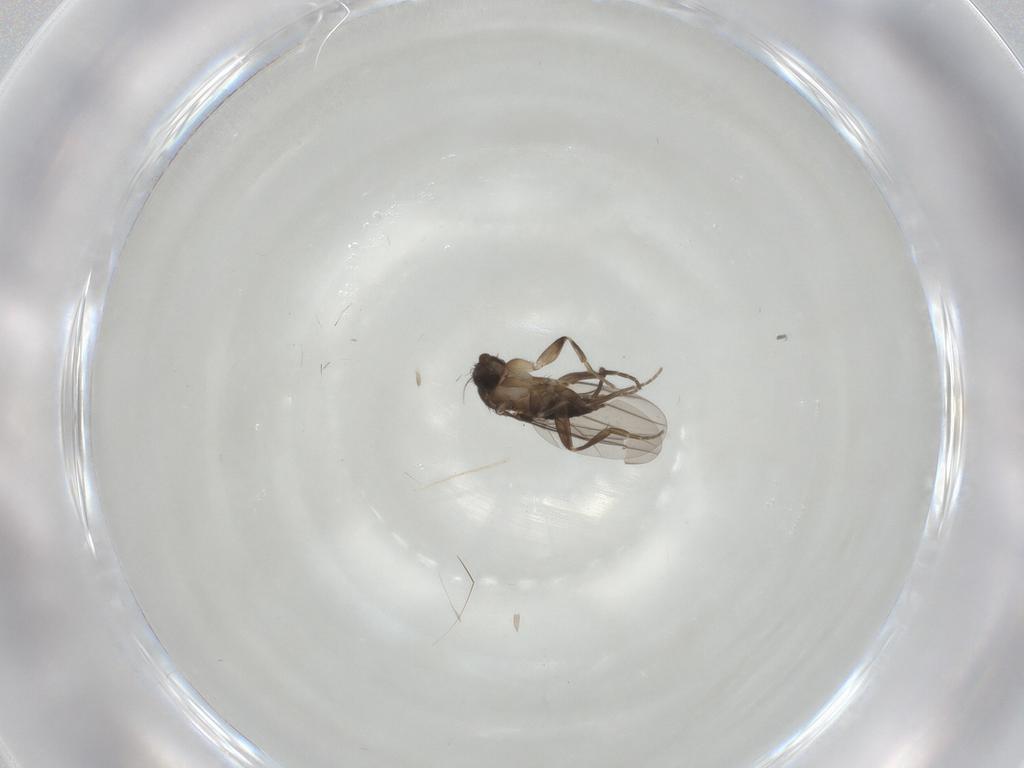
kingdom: Animalia
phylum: Arthropoda
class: Insecta
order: Diptera
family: Phoridae
